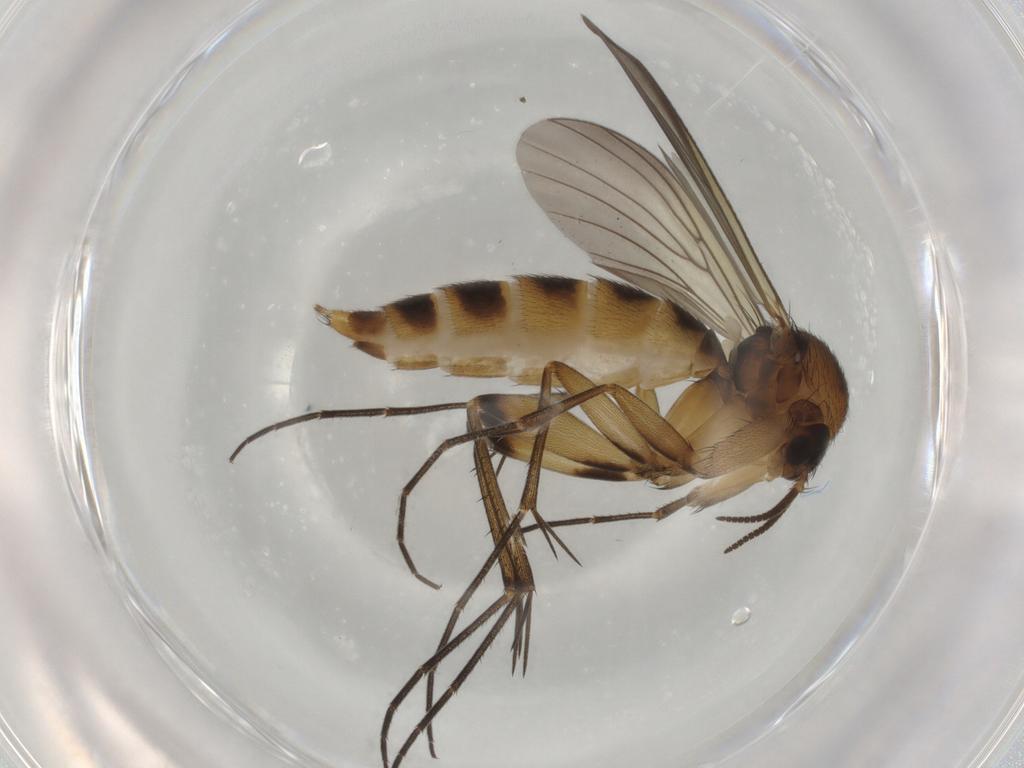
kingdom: Animalia
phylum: Arthropoda
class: Insecta
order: Diptera
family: Mycetophilidae
